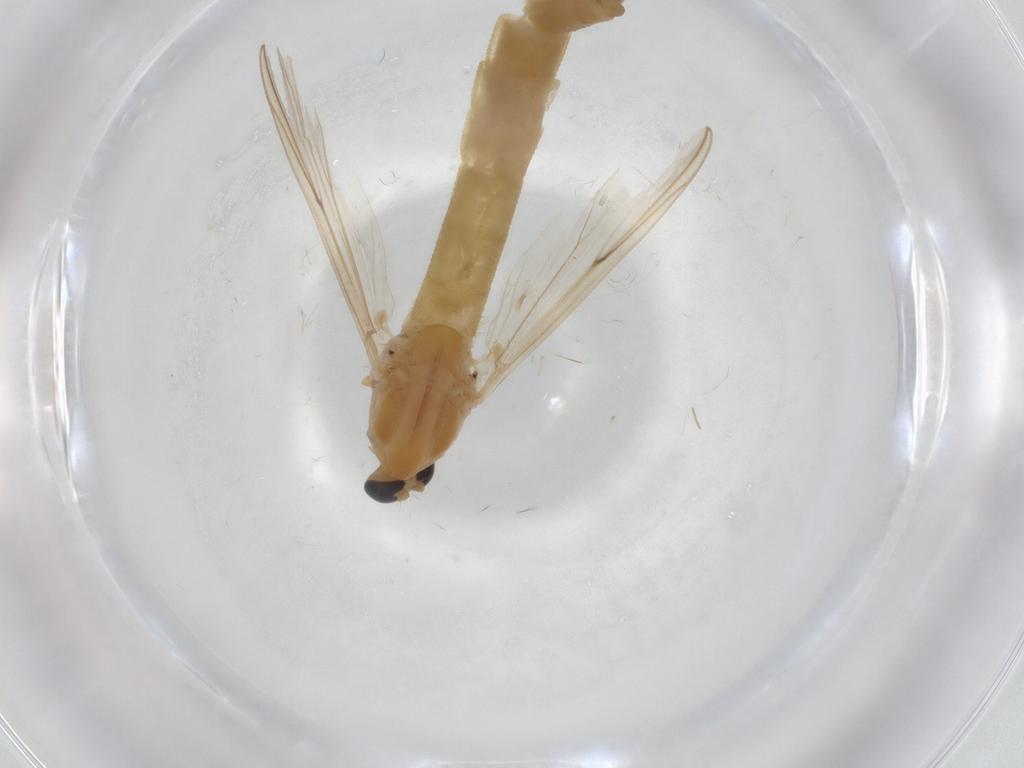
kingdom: Animalia
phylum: Arthropoda
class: Insecta
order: Diptera
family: Chironomidae
